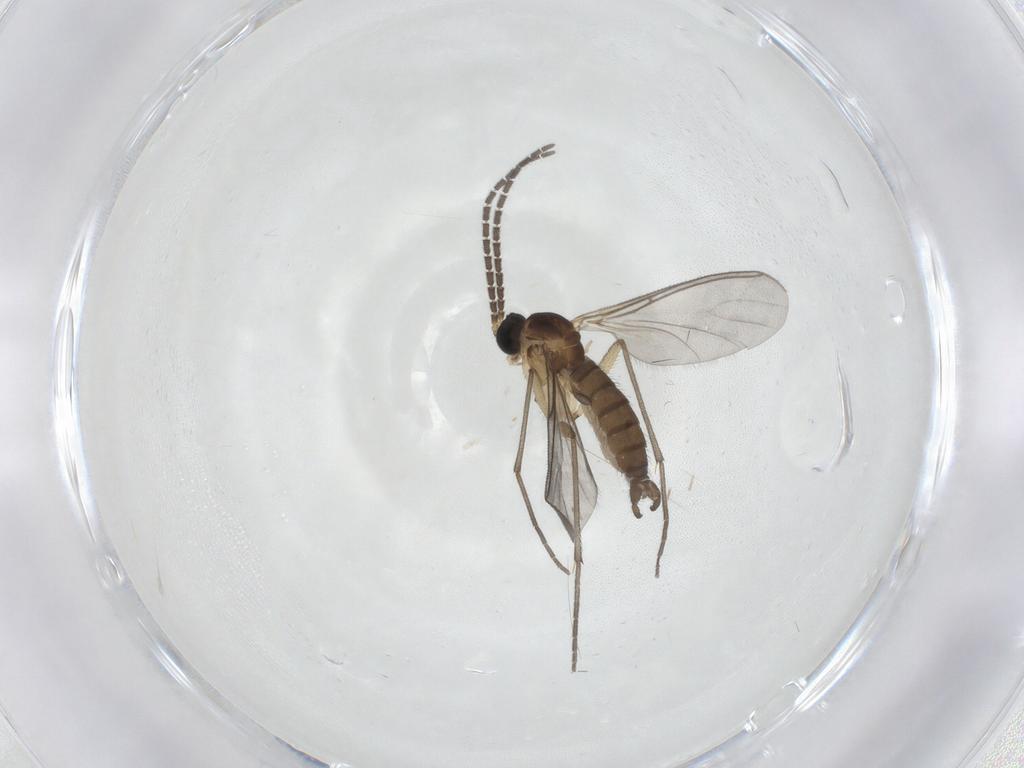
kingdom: Animalia
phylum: Arthropoda
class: Insecta
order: Diptera
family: Sciaridae
